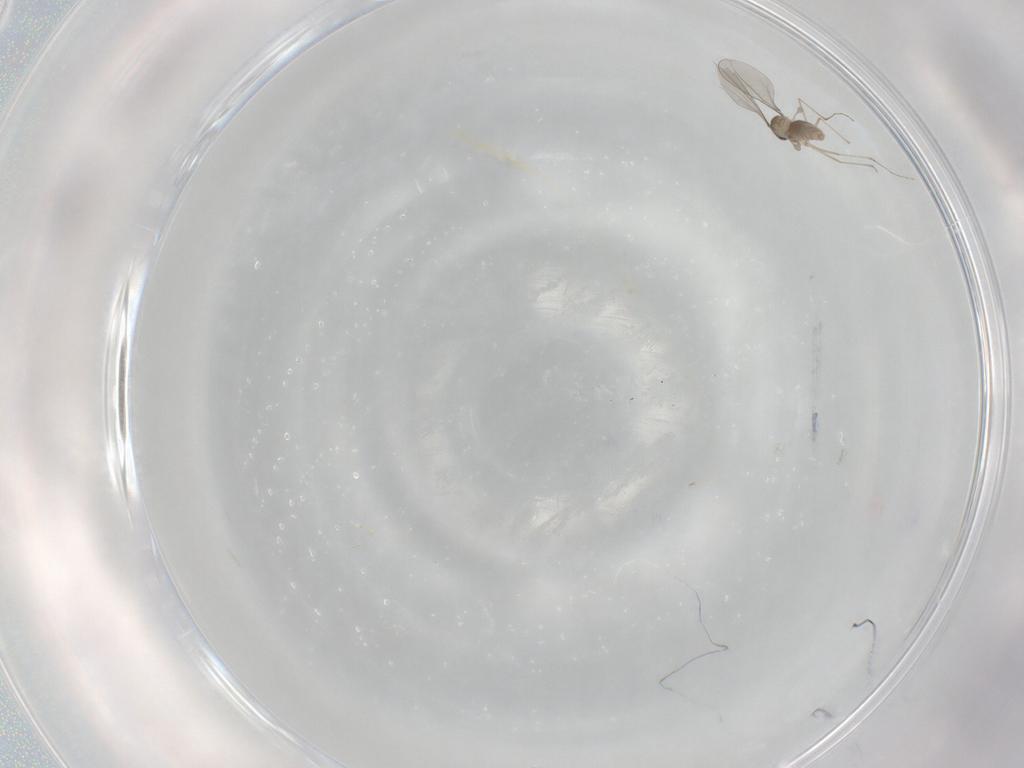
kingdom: Animalia
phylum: Arthropoda
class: Insecta
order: Diptera
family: Cecidomyiidae
